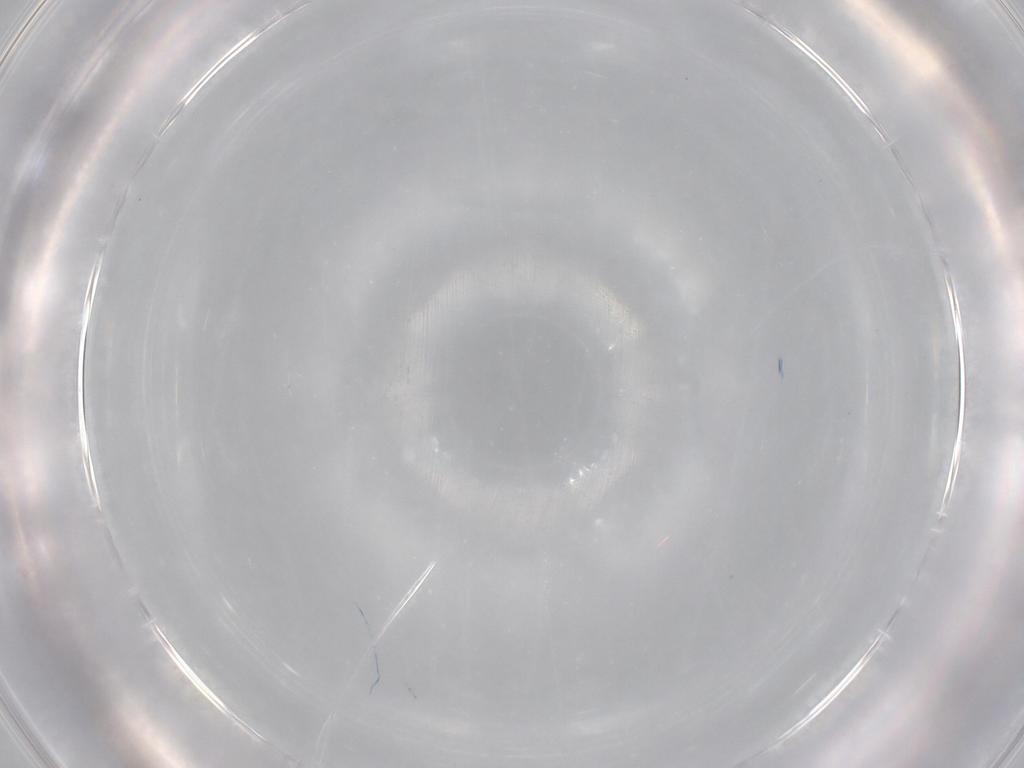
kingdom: Animalia
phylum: Arthropoda
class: Insecta
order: Diptera
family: Mycetophilidae
